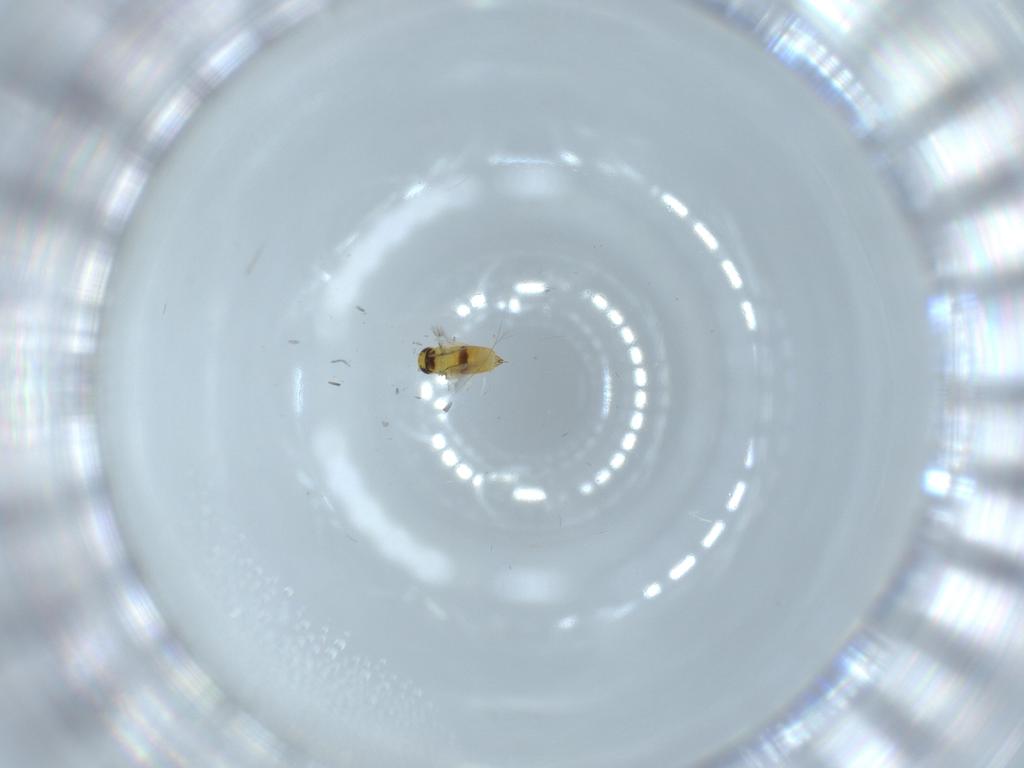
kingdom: Animalia
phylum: Arthropoda
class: Insecta
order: Hymenoptera
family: Signiphoridae
